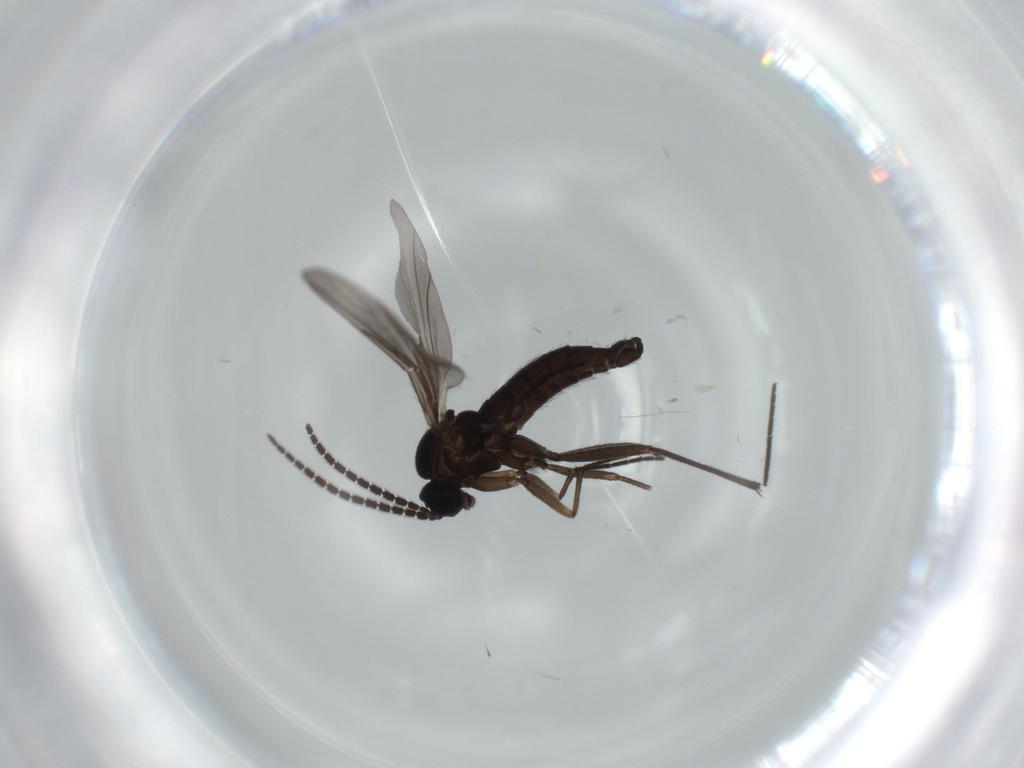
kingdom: Animalia
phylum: Arthropoda
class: Insecta
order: Diptera
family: Sciaridae
